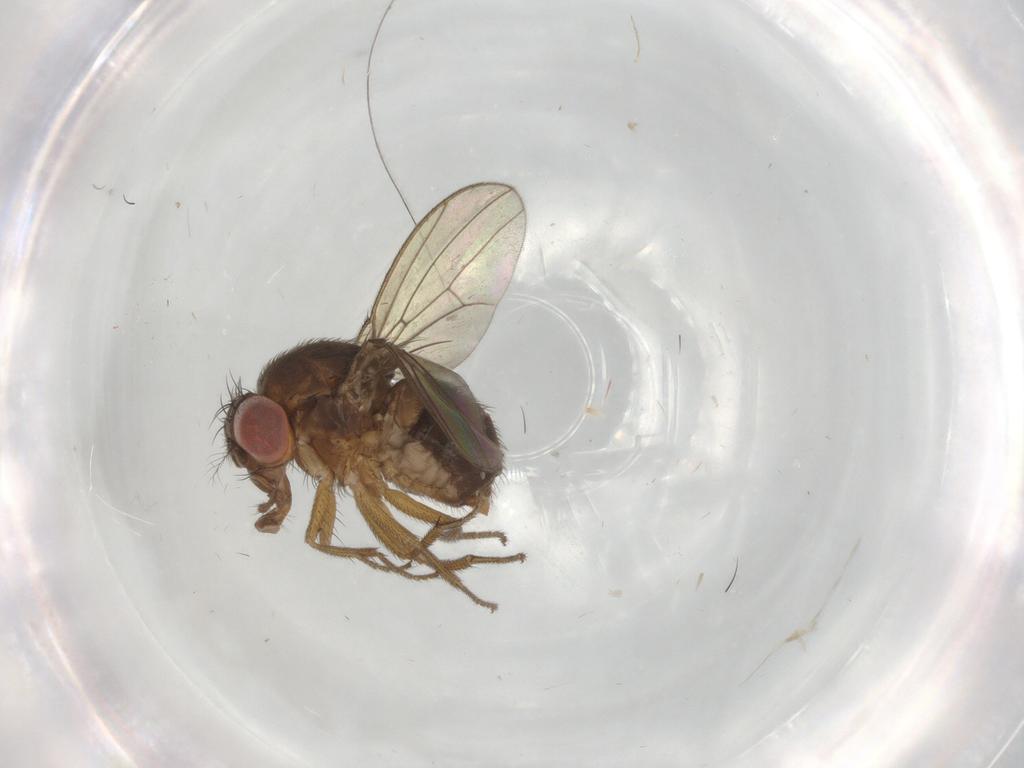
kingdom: Animalia
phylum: Arthropoda
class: Insecta
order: Diptera
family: Drosophilidae
